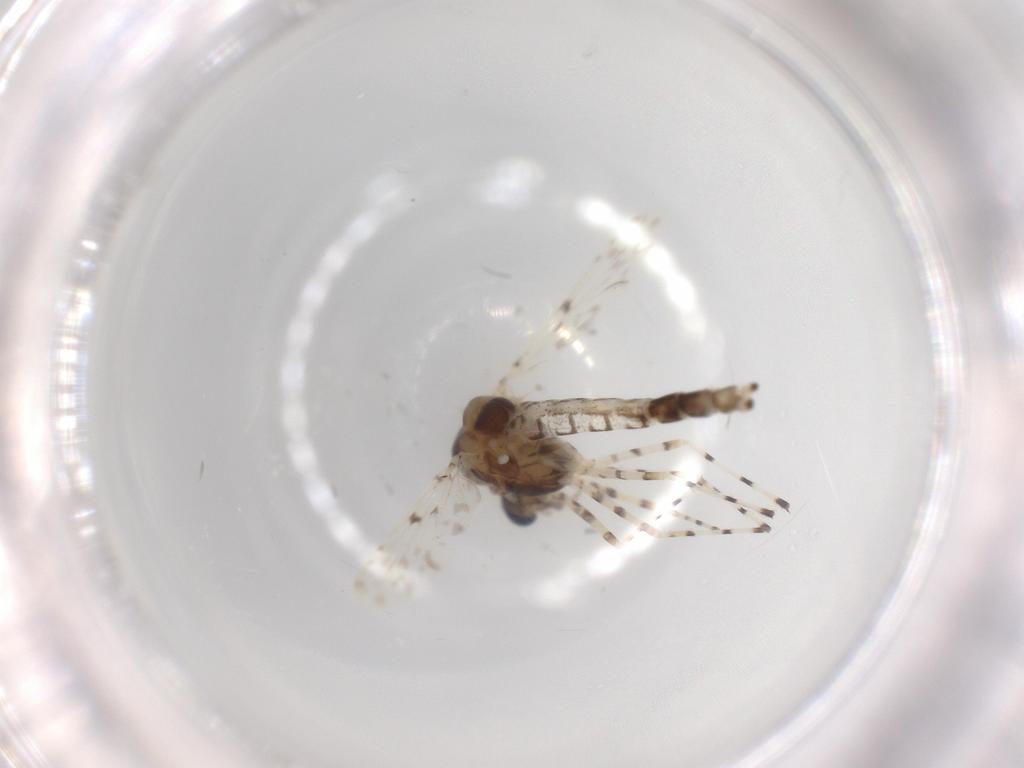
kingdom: Animalia
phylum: Arthropoda
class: Insecta
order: Diptera
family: Chironomidae
